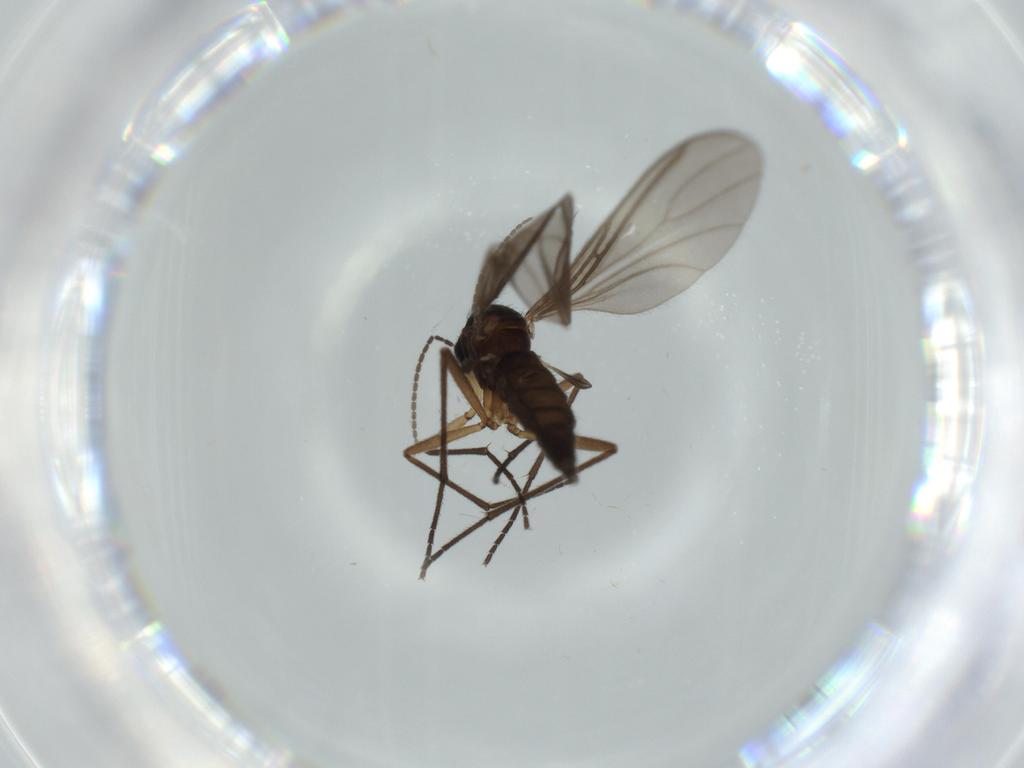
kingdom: Animalia
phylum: Arthropoda
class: Insecta
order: Diptera
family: Sciaridae
